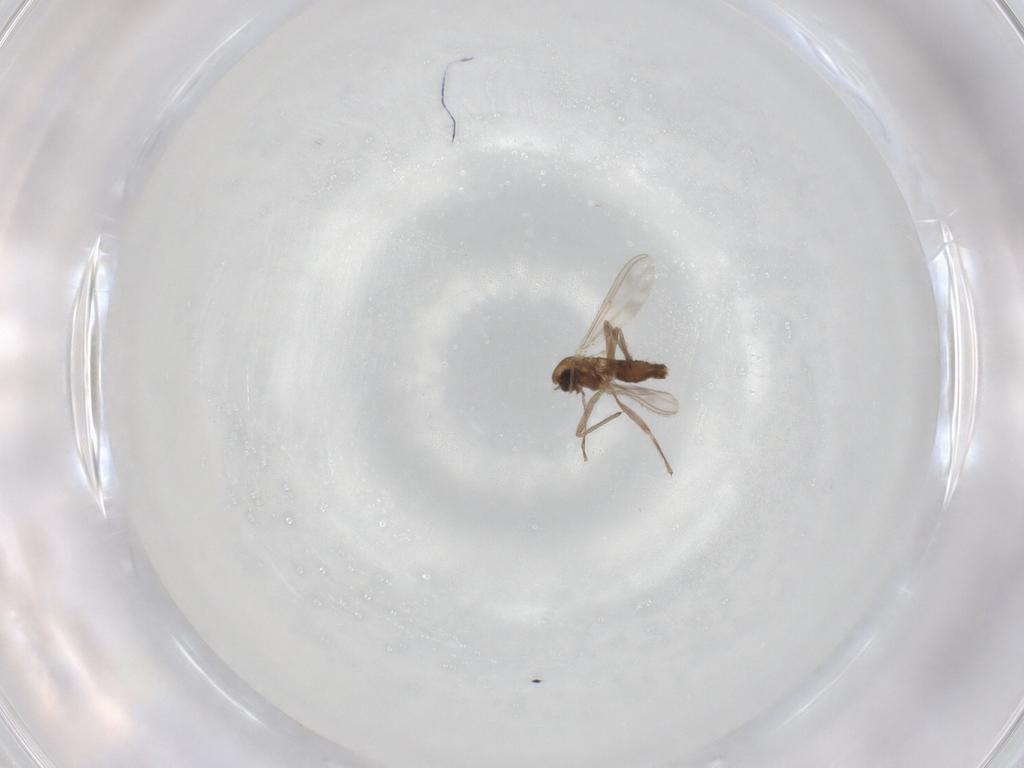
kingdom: Animalia
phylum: Arthropoda
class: Insecta
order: Diptera
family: Chironomidae
